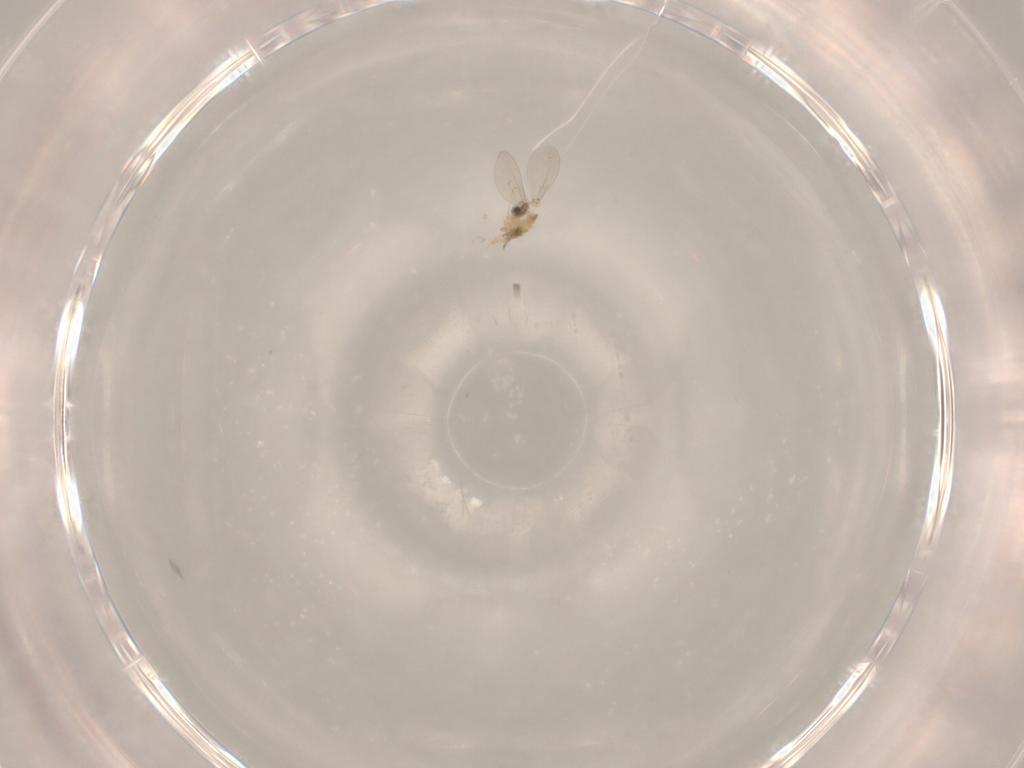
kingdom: Animalia
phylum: Arthropoda
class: Insecta
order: Diptera
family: Cecidomyiidae
